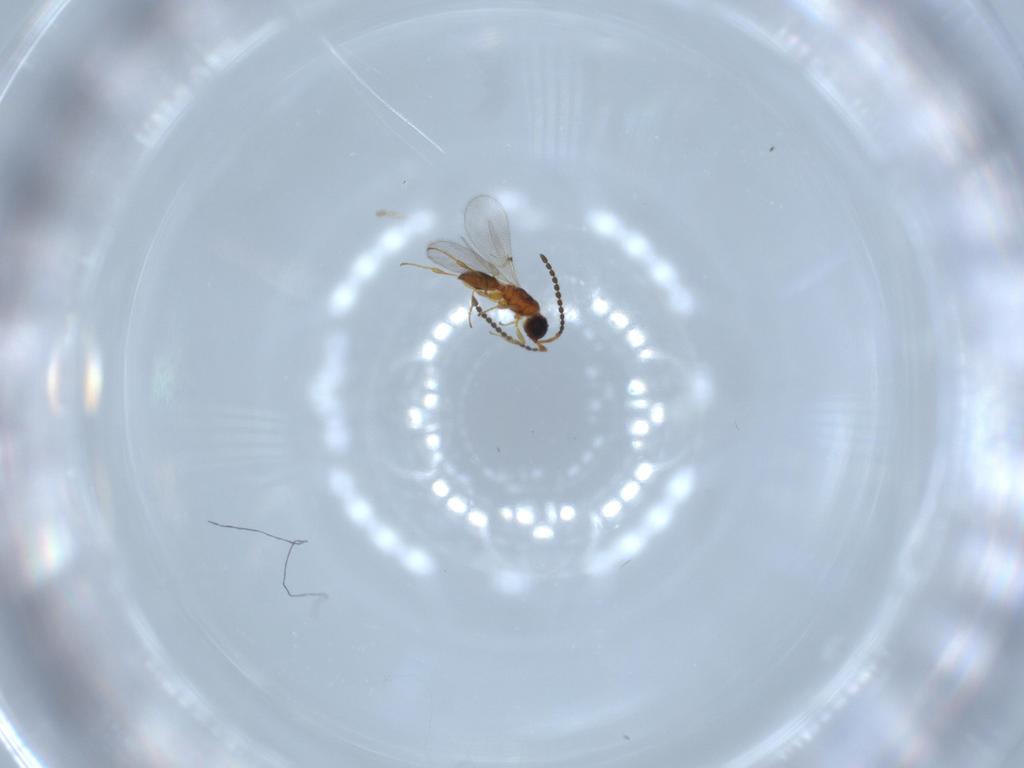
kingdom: Animalia
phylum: Arthropoda
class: Insecta
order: Hymenoptera
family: Diapriidae
